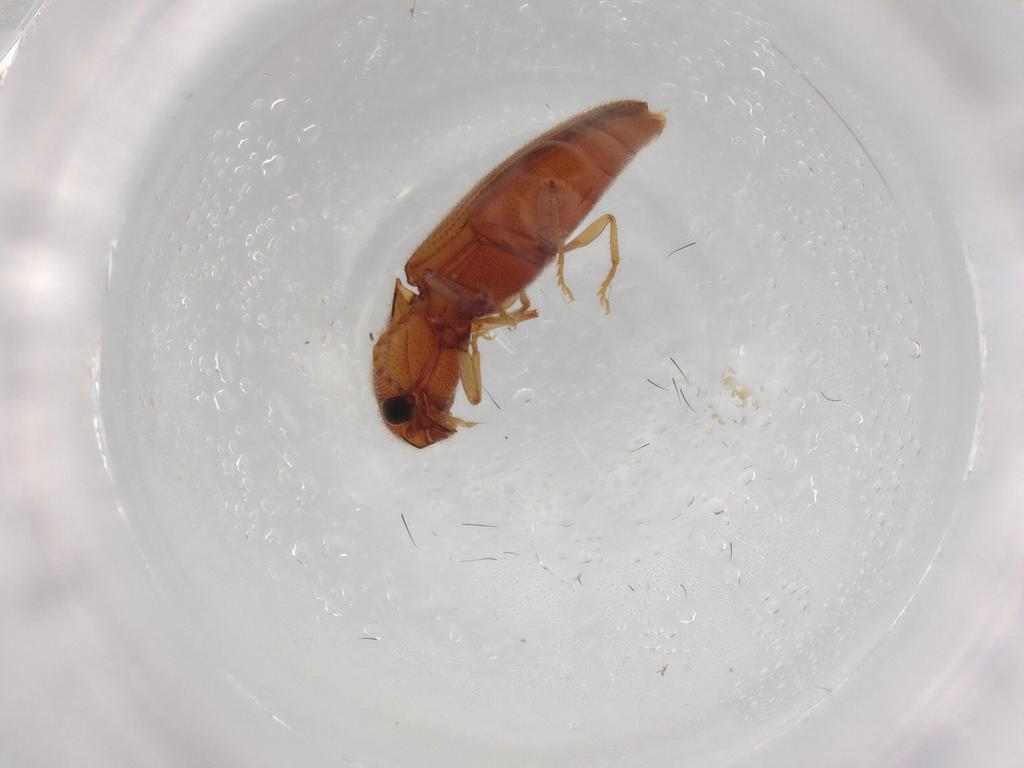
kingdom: Animalia
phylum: Arthropoda
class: Insecta
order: Coleoptera
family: Elateridae
